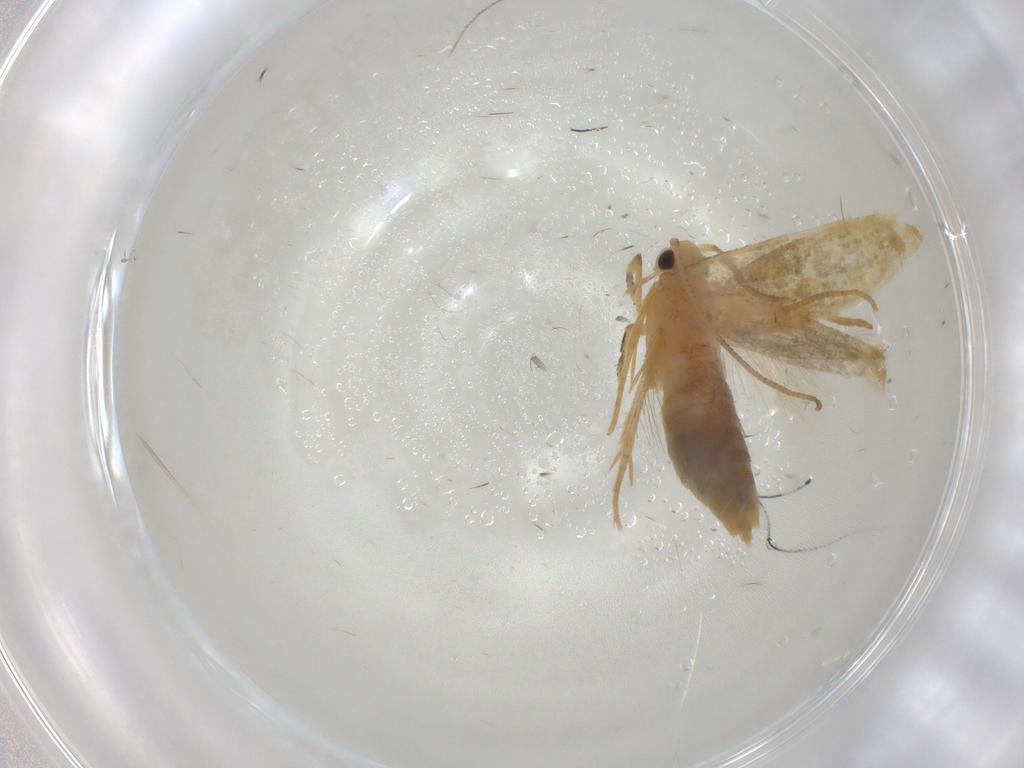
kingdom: Animalia
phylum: Arthropoda
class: Insecta
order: Lepidoptera
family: Nepticulidae
